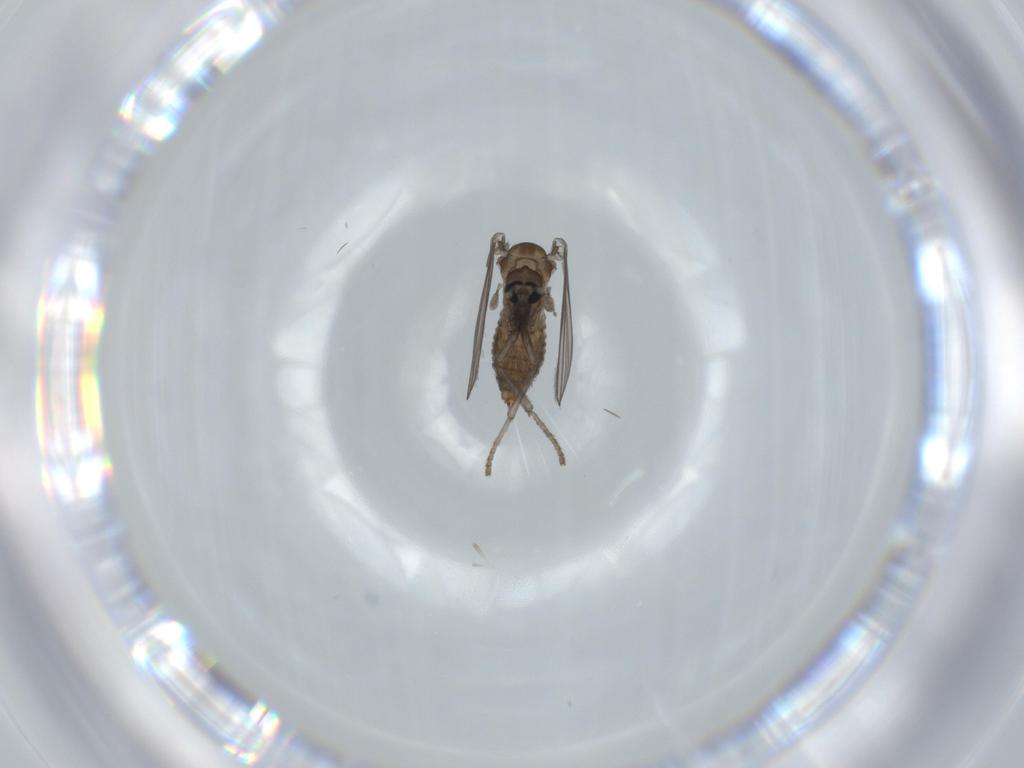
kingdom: Animalia
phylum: Arthropoda
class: Insecta
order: Diptera
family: Psychodidae
